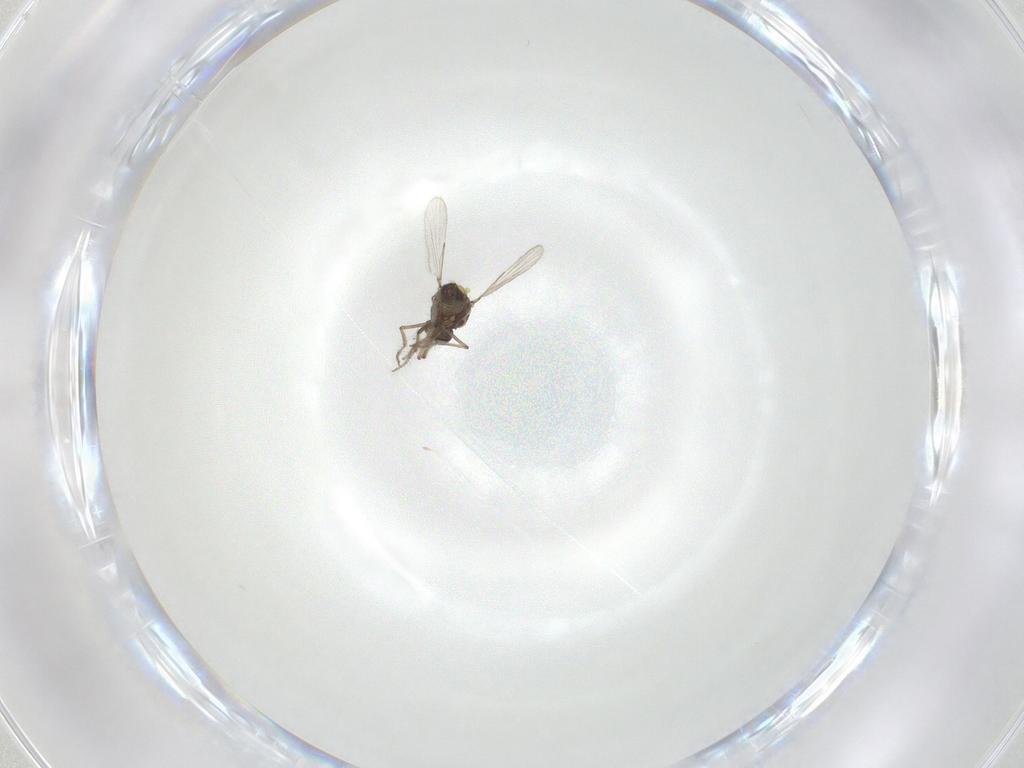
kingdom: Animalia
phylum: Arthropoda
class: Insecta
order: Diptera
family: Ceratopogonidae
